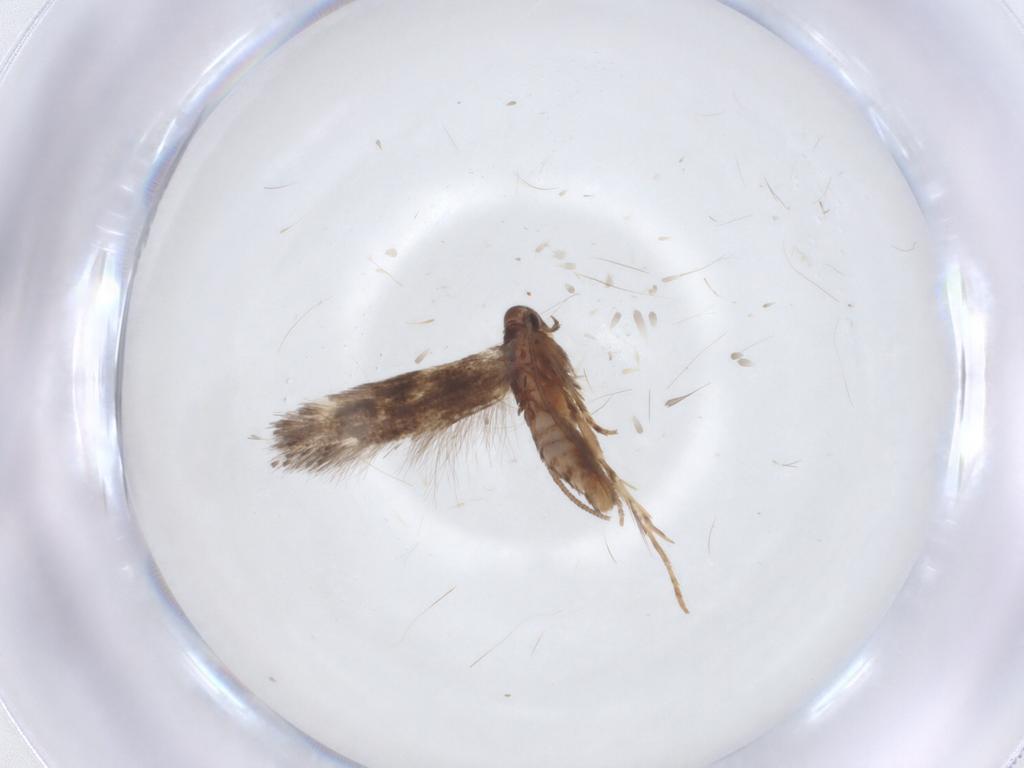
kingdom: Animalia
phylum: Arthropoda
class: Insecta
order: Lepidoptera
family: Gelechiidae
